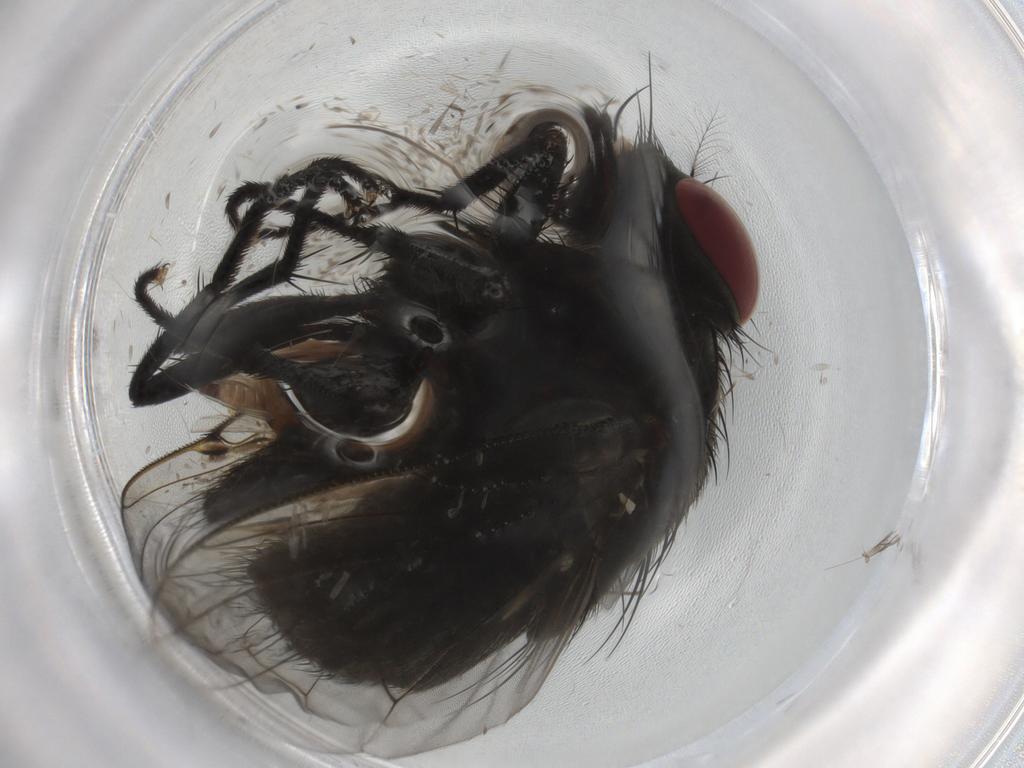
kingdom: Animalia
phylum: Arthropoda
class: Insecta
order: Diptera
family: Muscidae
